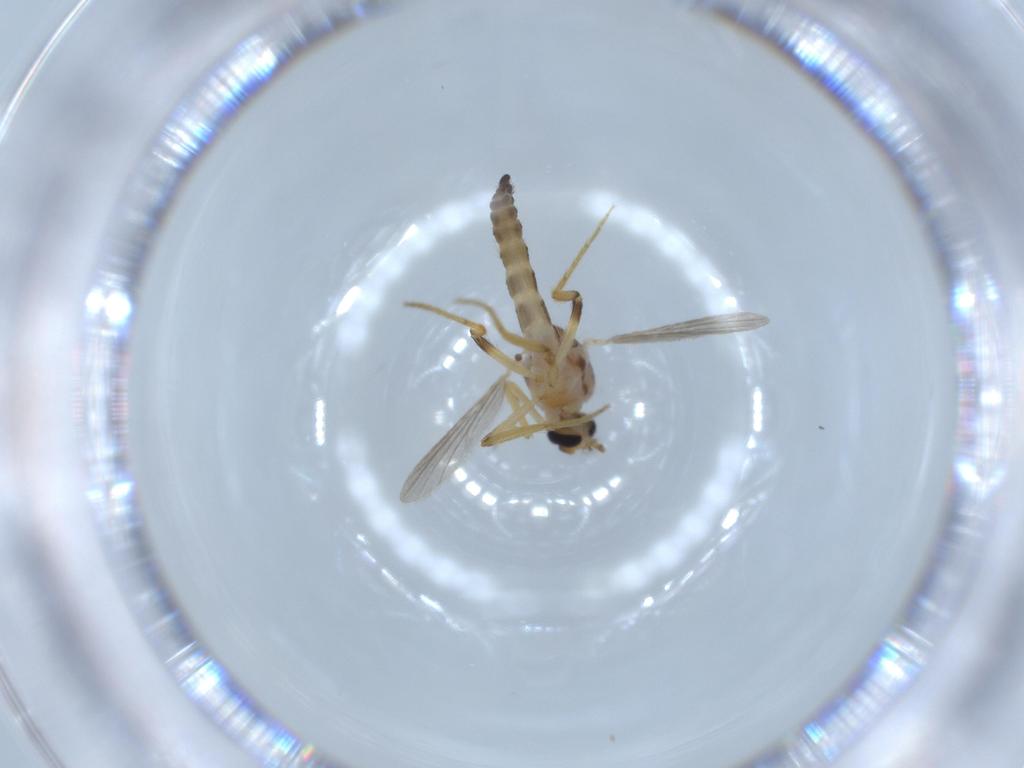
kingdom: Animalia
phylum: Arthropoda
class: Insecta
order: Diptera
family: Ceratopogonidae
